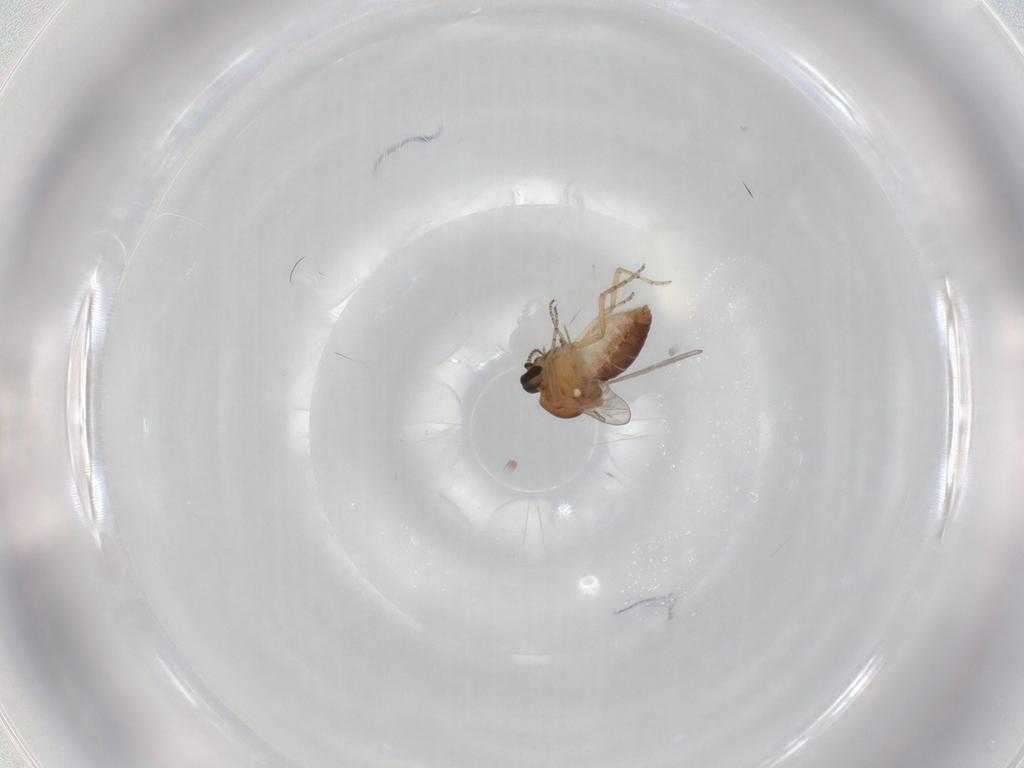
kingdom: Animalia
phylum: Arthropoda
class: Insecta
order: Diptera
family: Ceratopogonidae
